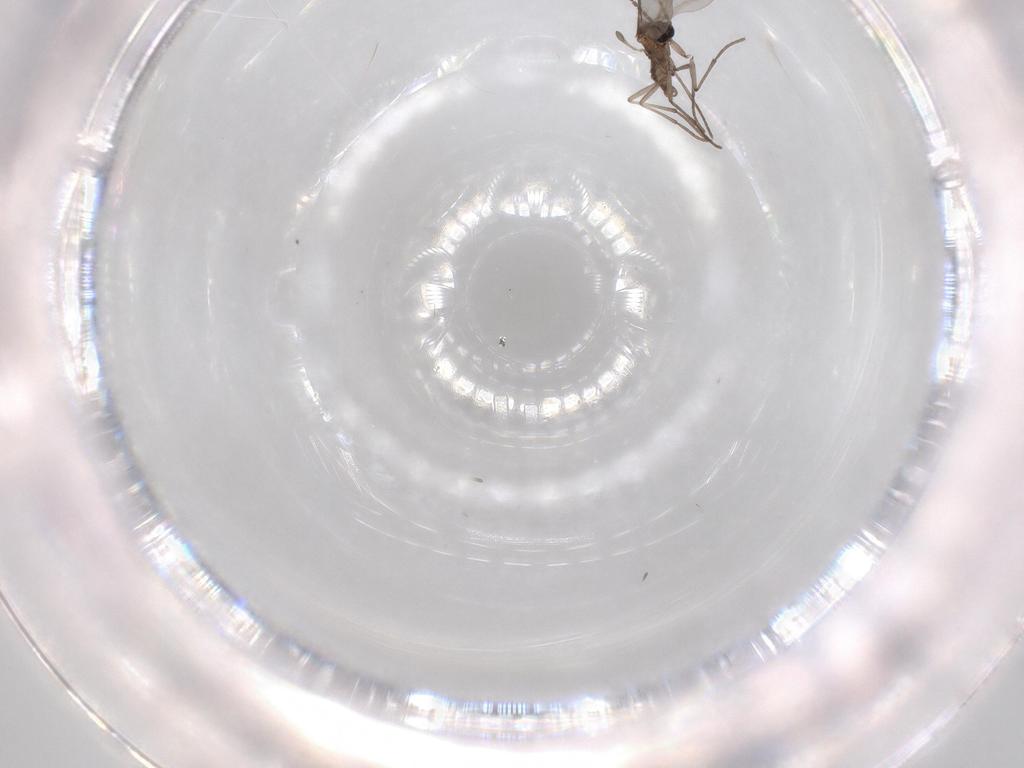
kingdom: Animalia
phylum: Arthropoda
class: Insecta
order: Diptera
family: Sciaridae
